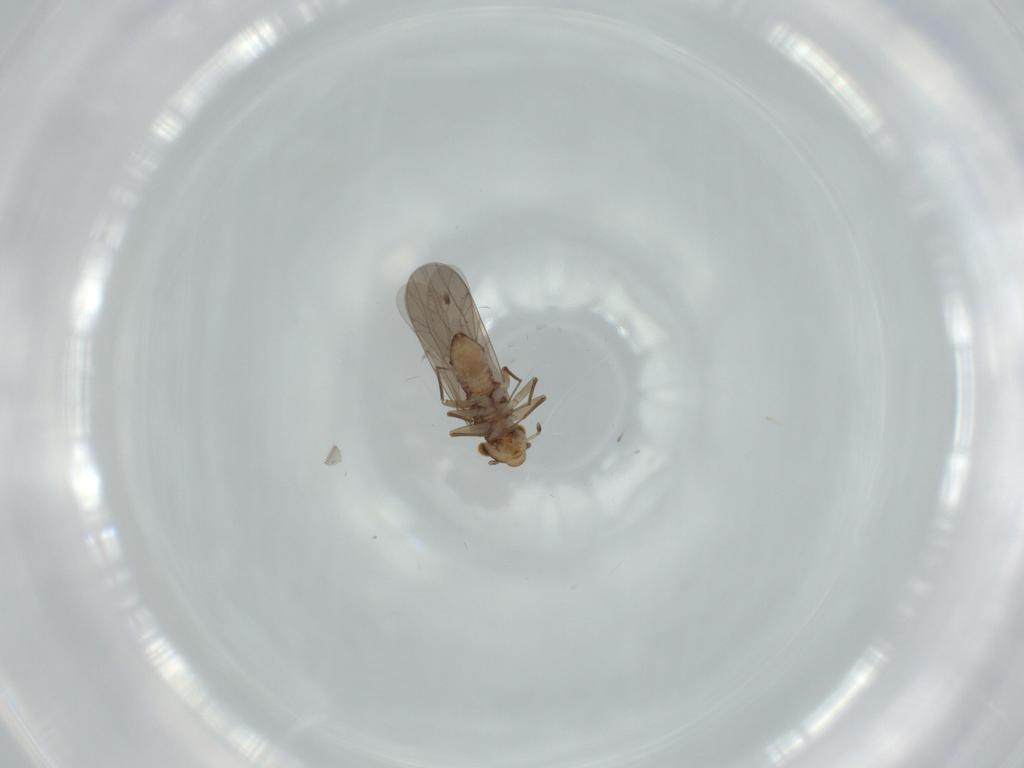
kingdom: Animalia
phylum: Arthropoda
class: Insecta
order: Psocodea
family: Lepidopsocidae
